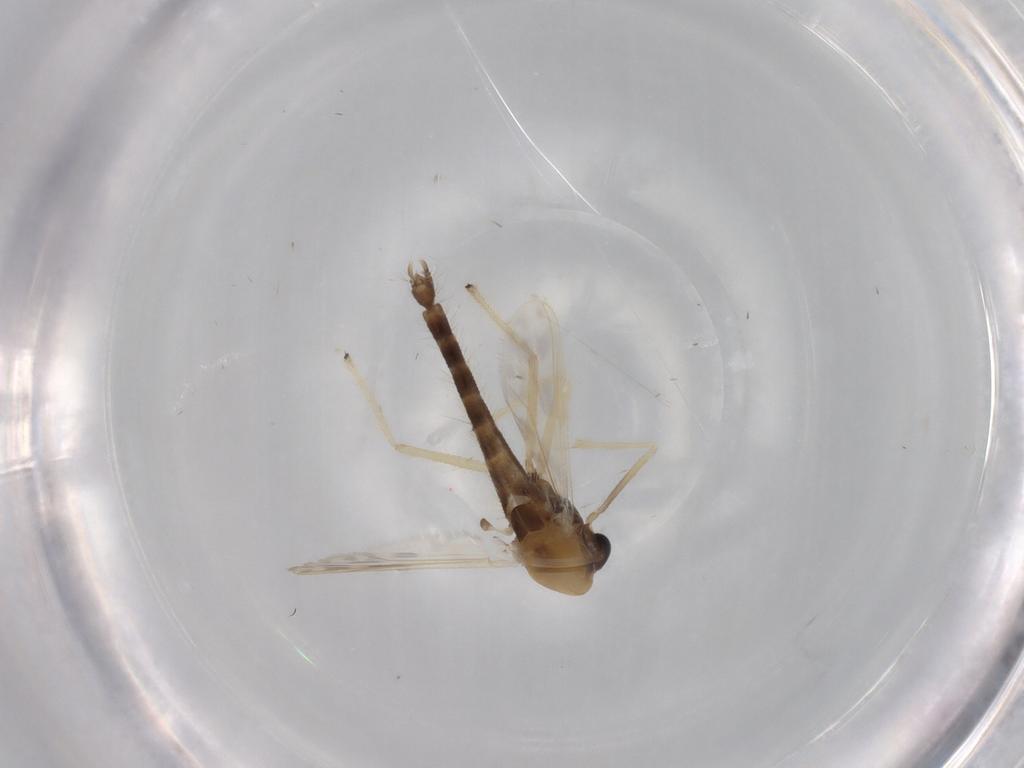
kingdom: Animalia
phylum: Arthropoda
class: Insecta
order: Diptera
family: Chironomidae
